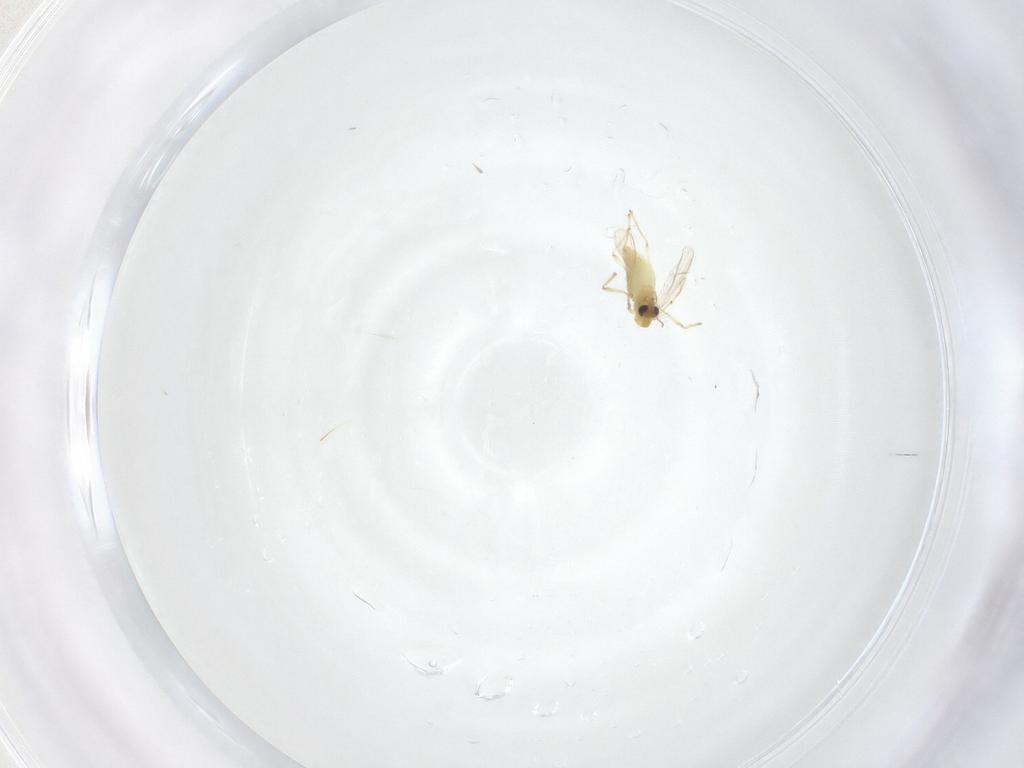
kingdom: Animalia
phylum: Arthropoda
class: Insecta
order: Diptera
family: Chironomidae
